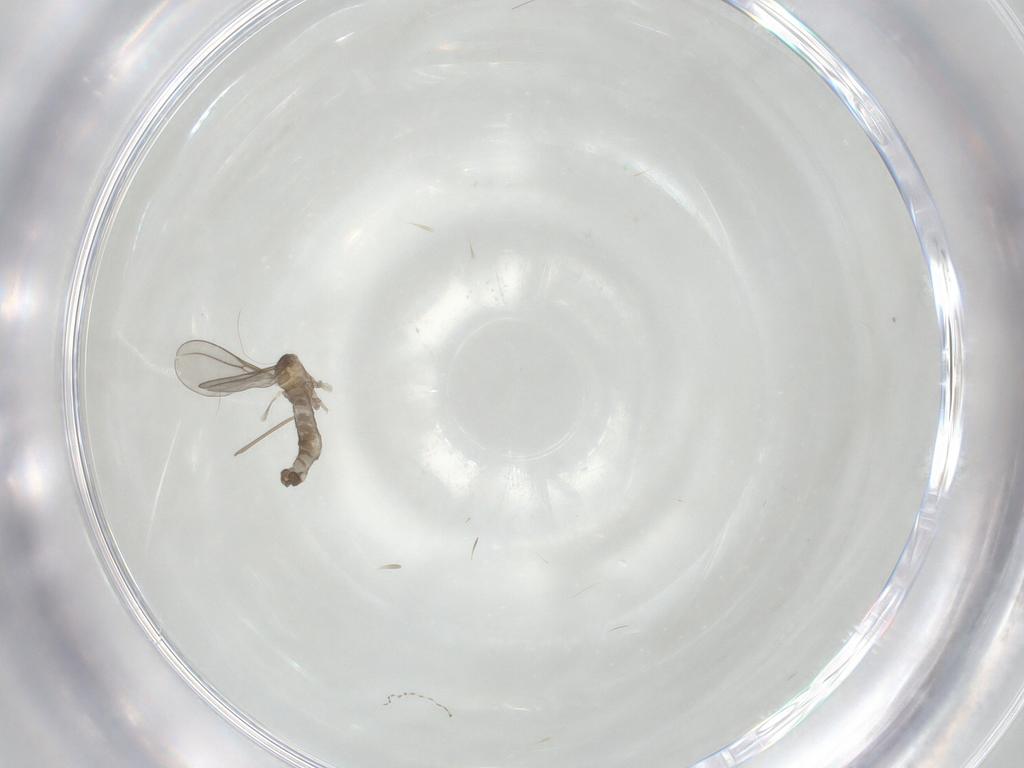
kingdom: Animalia
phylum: Arthropoda
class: Insecta
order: Diptera
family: Cecidomyiidae
